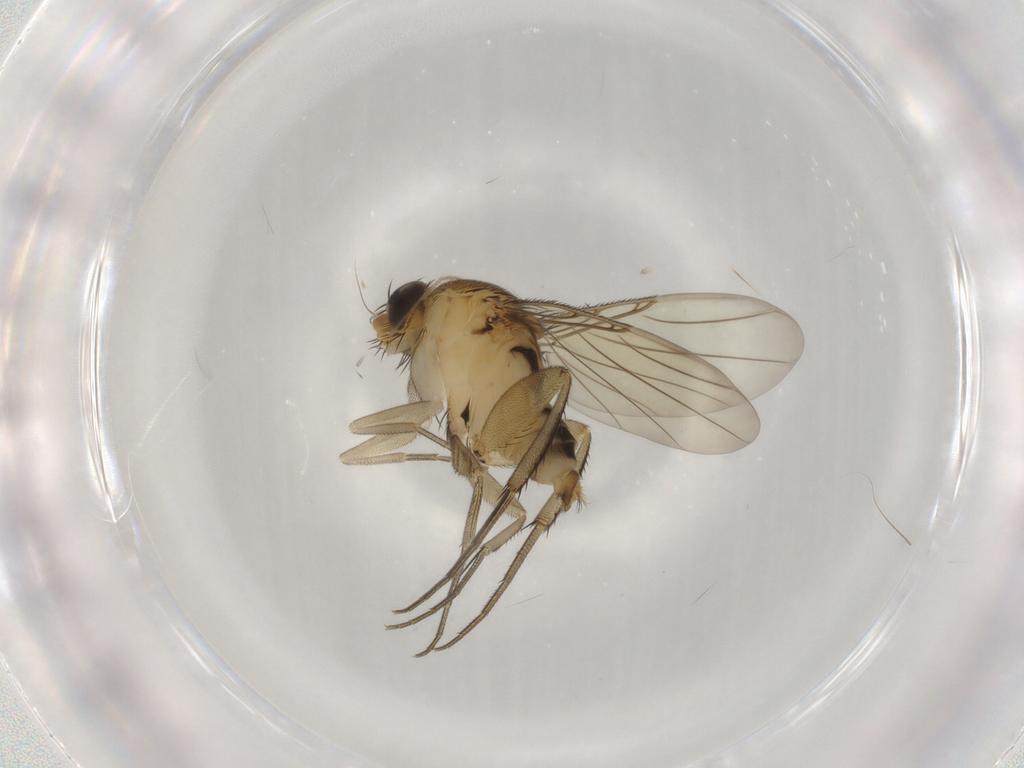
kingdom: Animalia
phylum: Arthropoda
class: Insecta
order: Diptera
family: Phoridae
